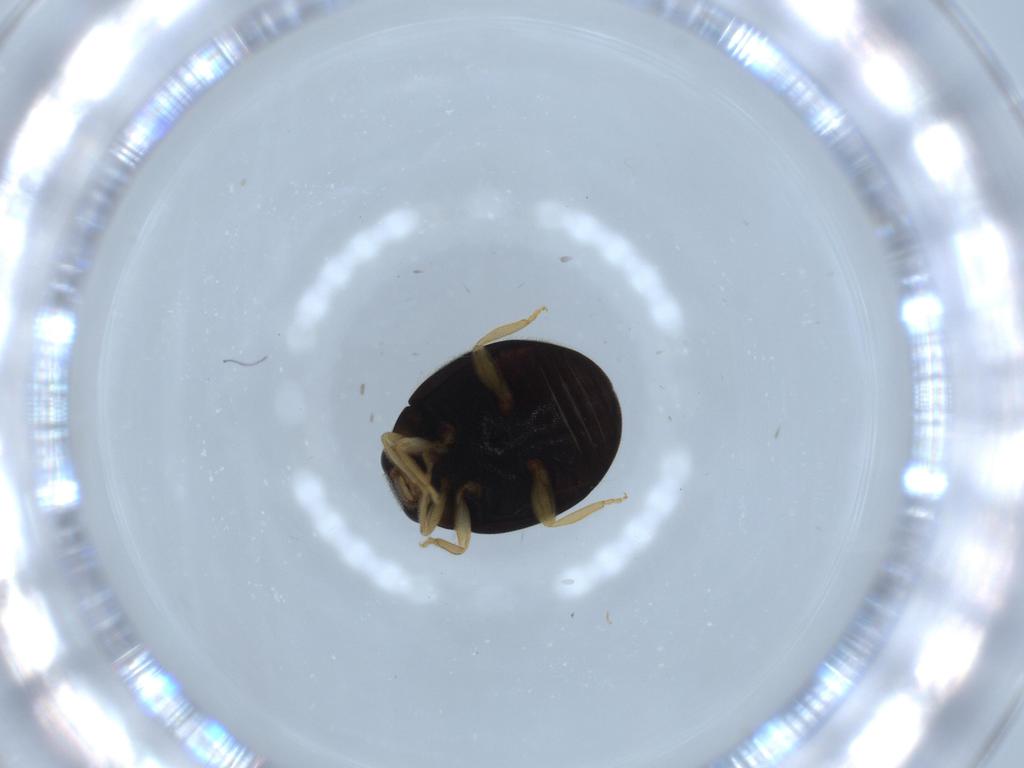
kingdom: Animalia
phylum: Arthropoda
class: Insecta
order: Coleoptera
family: Coccinellidae
